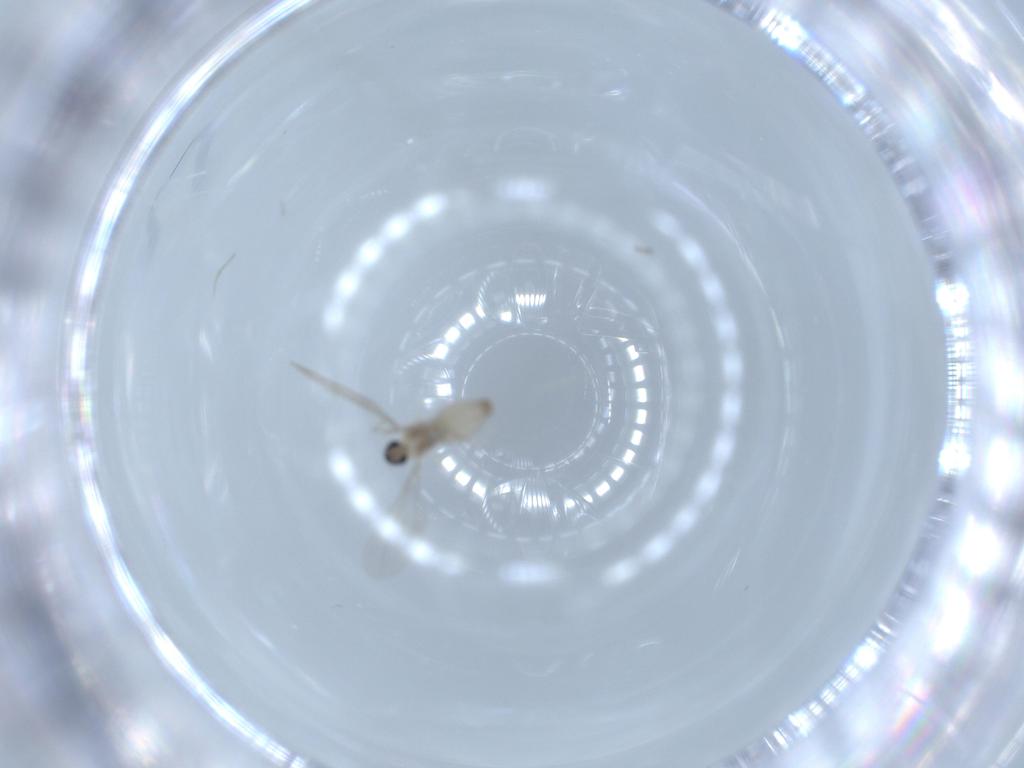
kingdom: Animalia
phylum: Arthropoda
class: Insecta
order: Diptera
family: Cecidomyiidae
